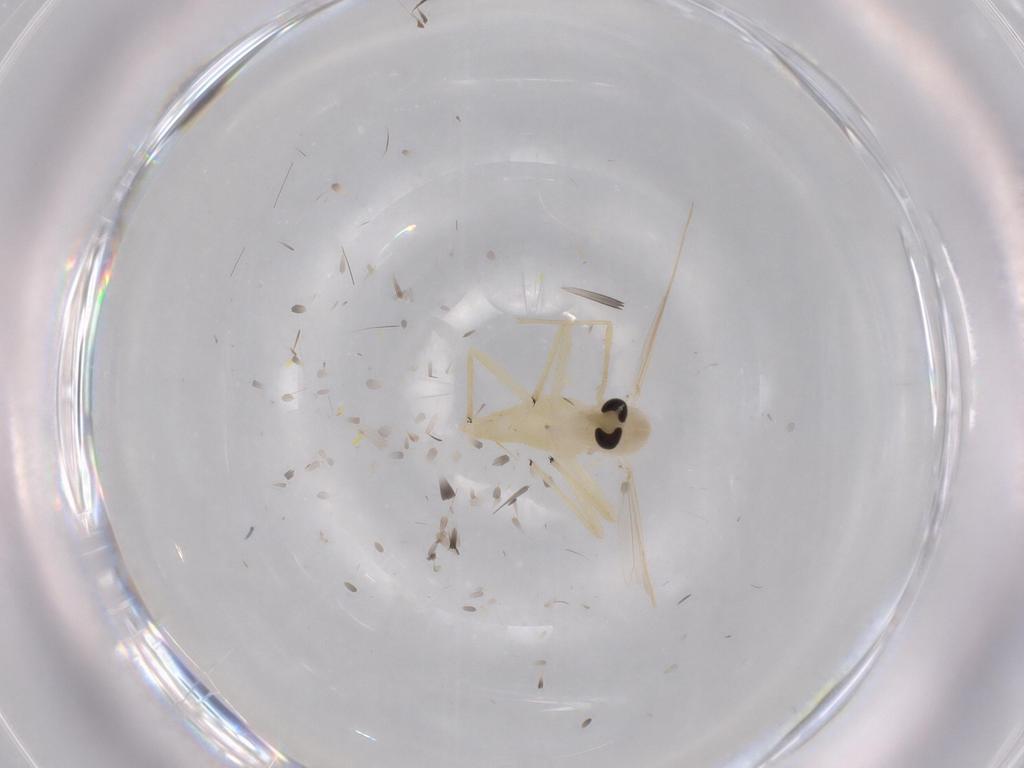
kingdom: Animalia
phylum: Arthropoda
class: Insecta
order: Diptera
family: Chironomidae
